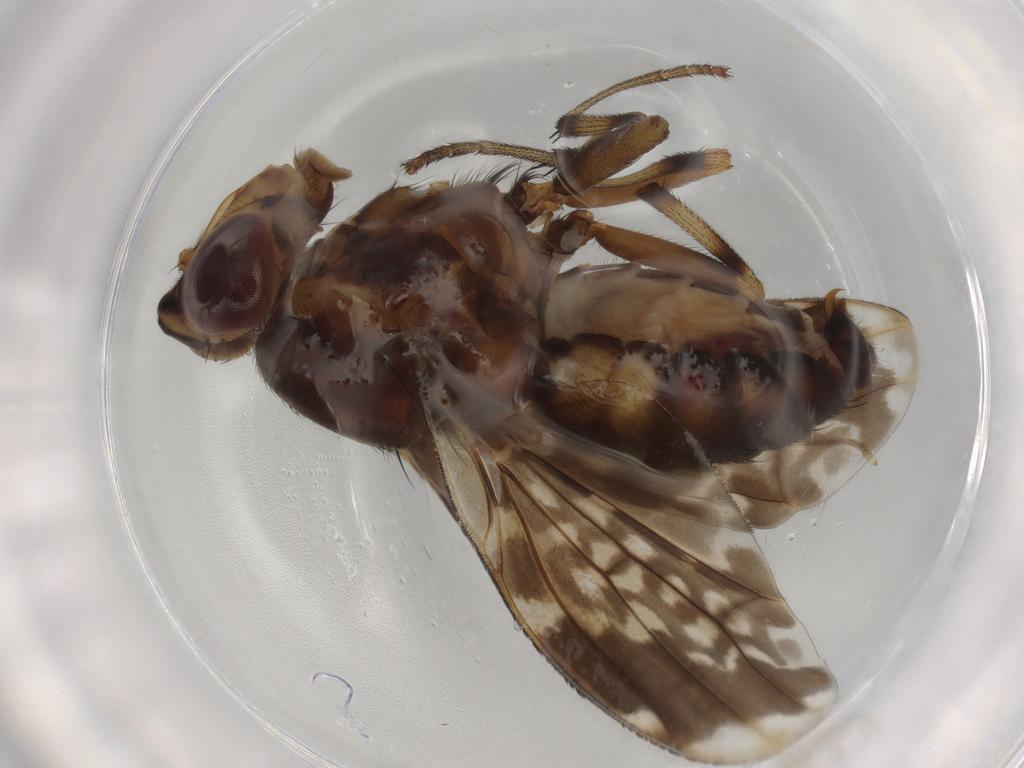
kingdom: Animalia
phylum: Arthropoda
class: Insecta
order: Diptera
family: Chironomidae
